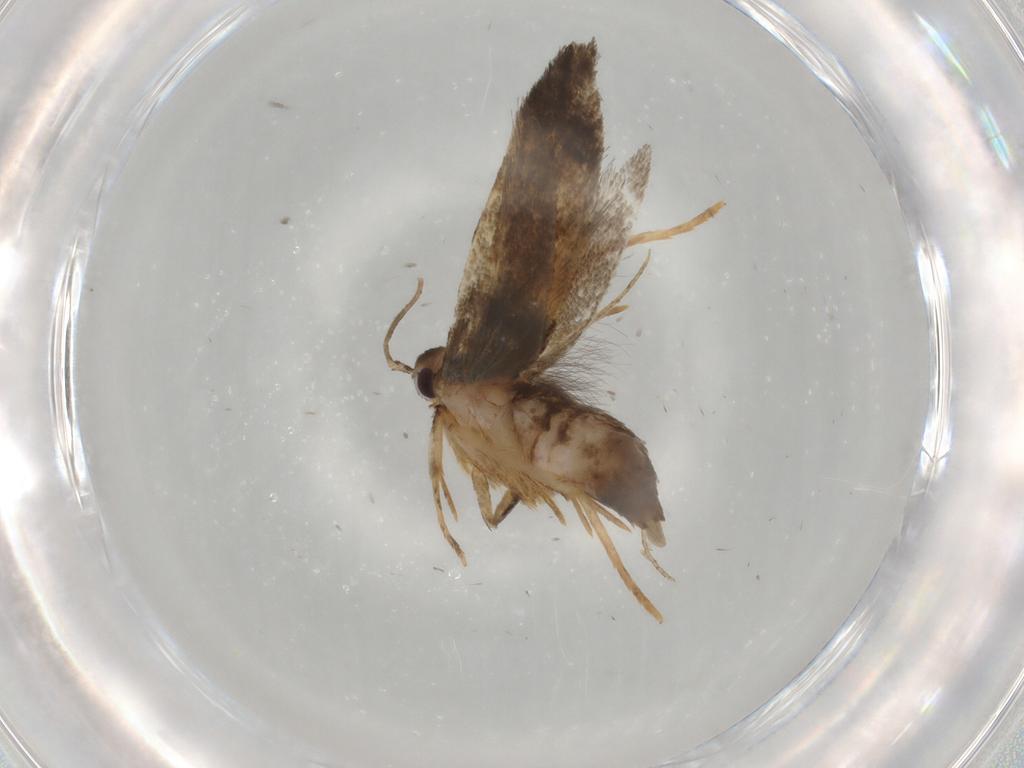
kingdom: Animalia
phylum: Arthropoda
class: Insecta
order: Lepidoptera
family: Cosmopterigidae
